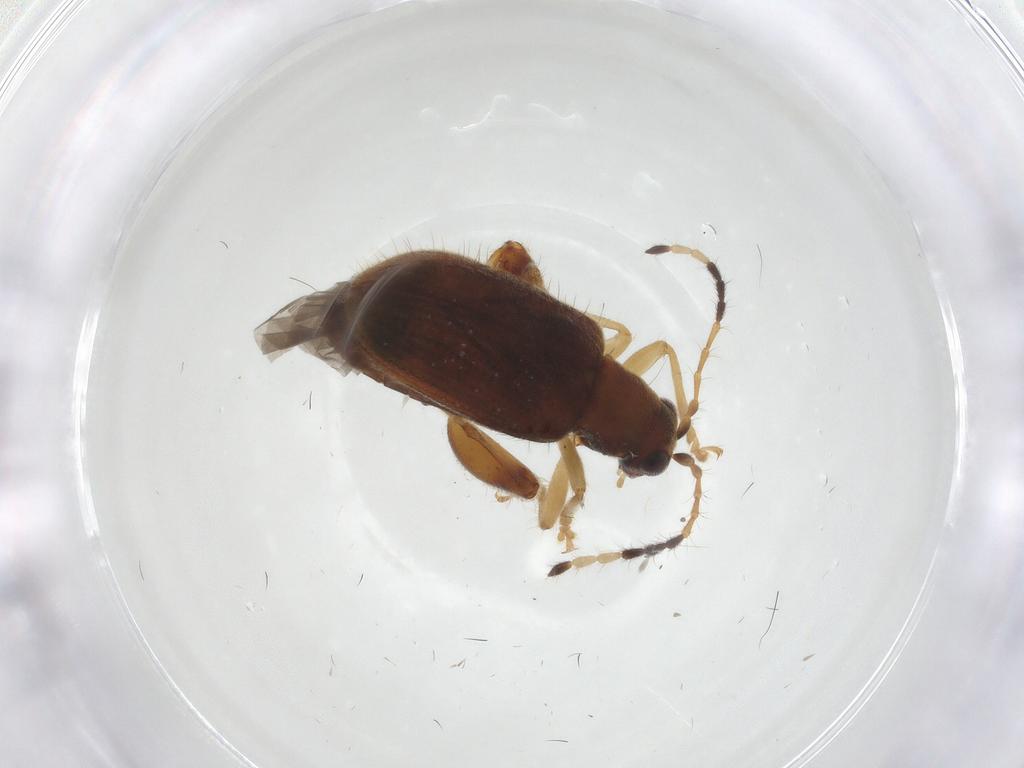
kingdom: Animalia
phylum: Arthropoda
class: Insecta
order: Coleoptera
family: Chrysomelidae
